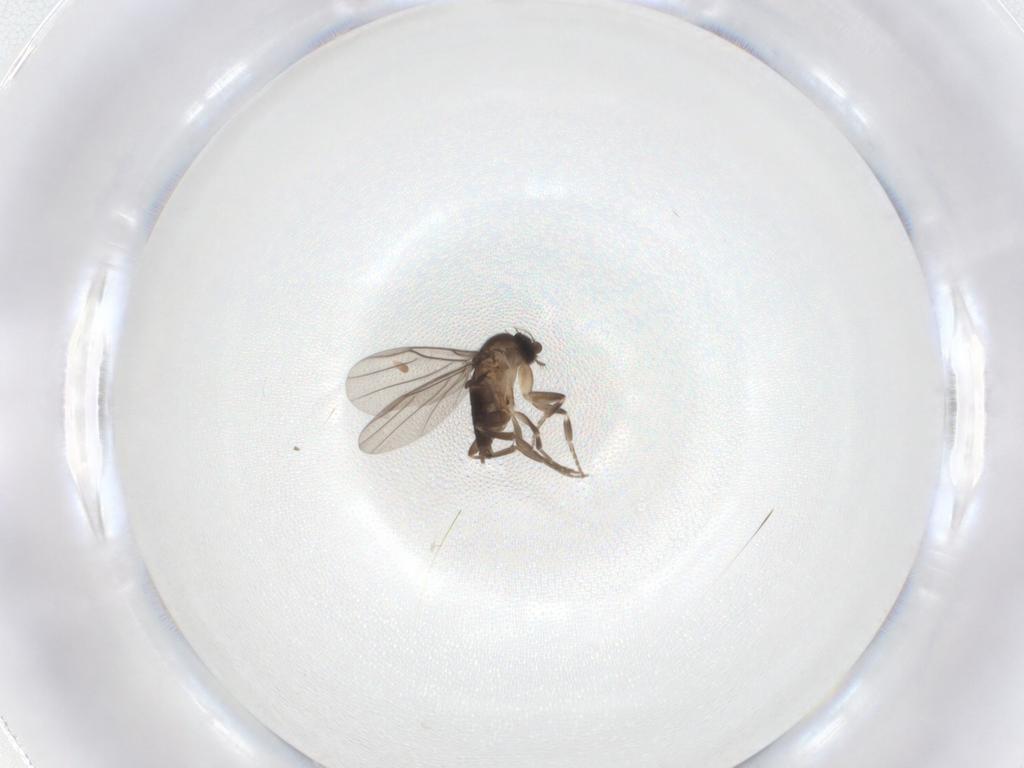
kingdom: Animalia
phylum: Arthropoda
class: Insecta
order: Diptera
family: Phoridae
